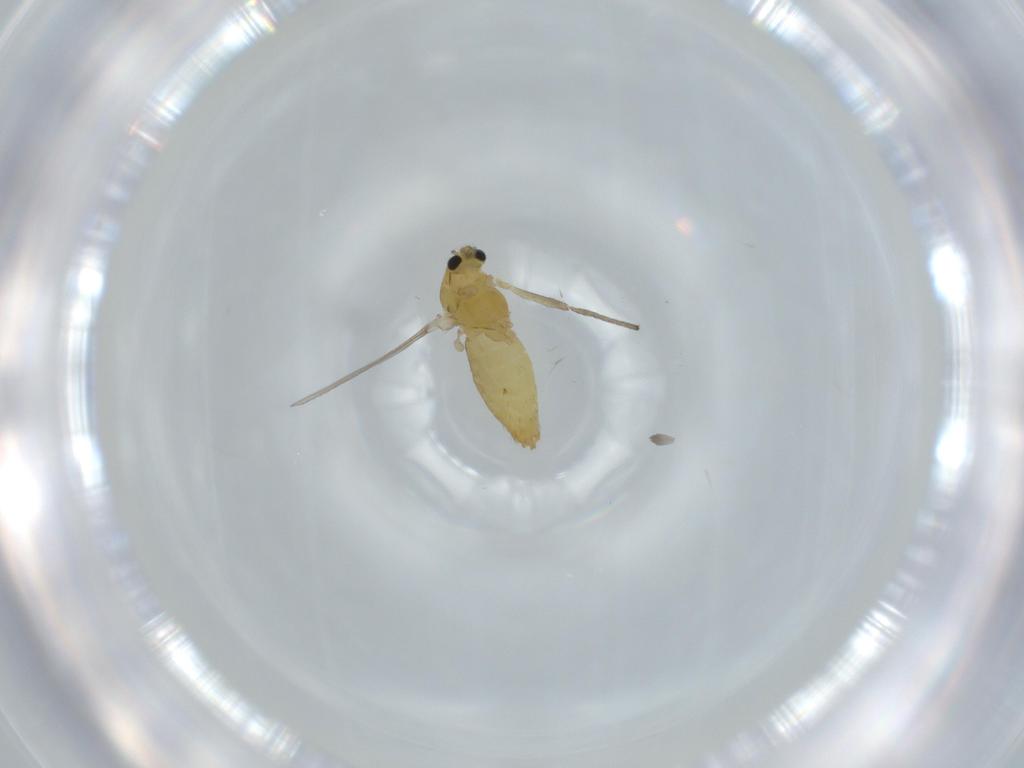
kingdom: Animalia
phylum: Arthropoda
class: Insecta
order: Diptera
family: Chironomidae
